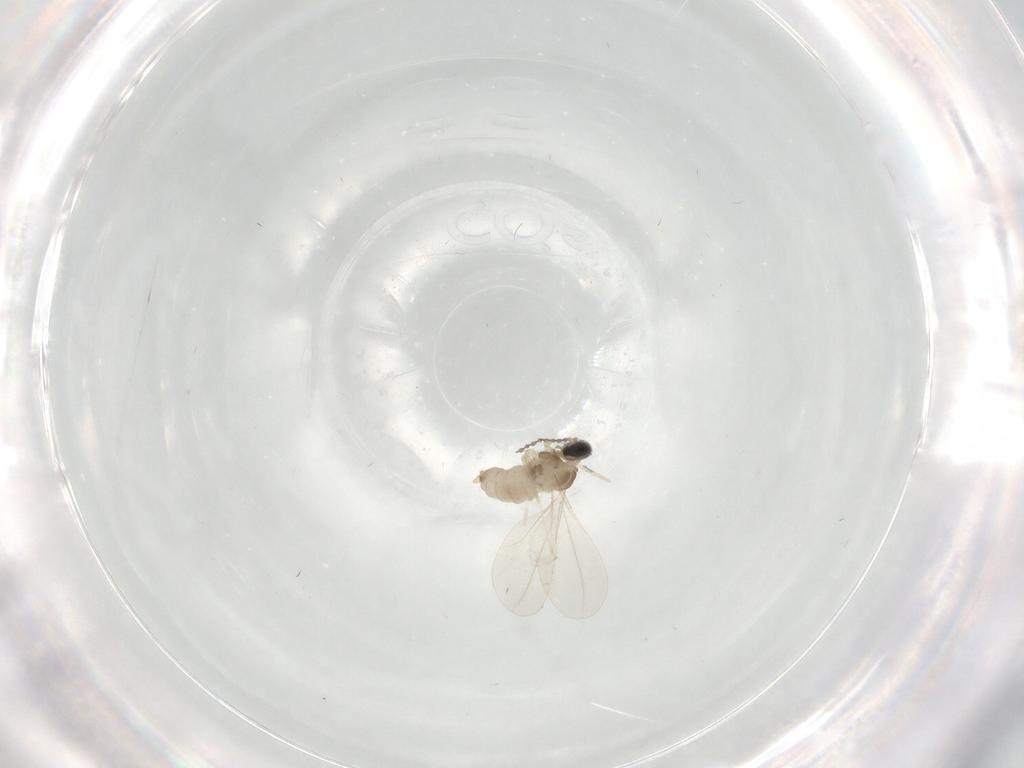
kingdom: Animalia
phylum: Arthropoda
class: Insecta
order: Diptera
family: Cecidomyiidae
